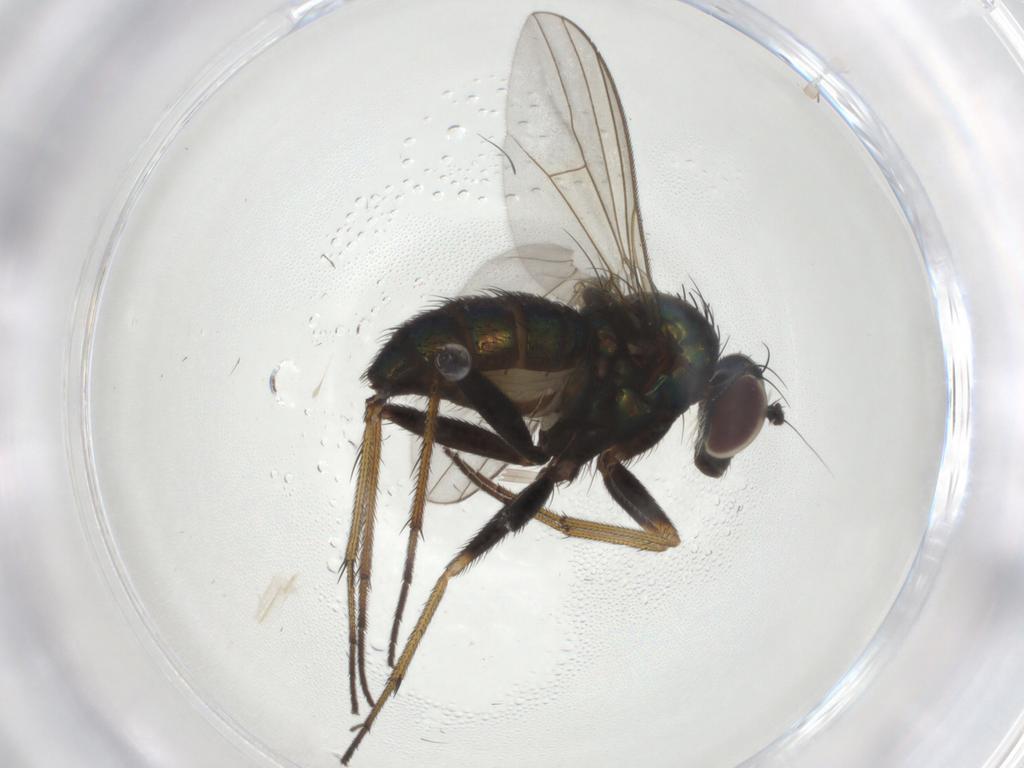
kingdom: Animalia
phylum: Arthropoda
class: Insecta
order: Diptera
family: Dolichopodidae
